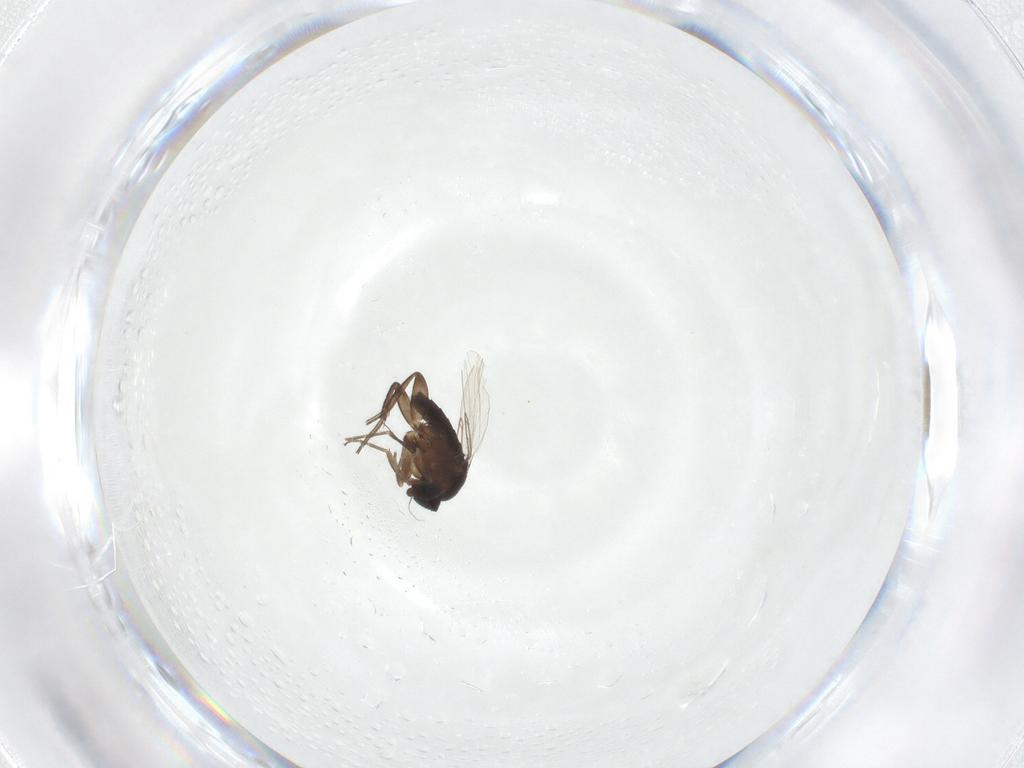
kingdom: Animalia
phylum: Arthropoda
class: Insecta
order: Diptera
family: Phoridae
